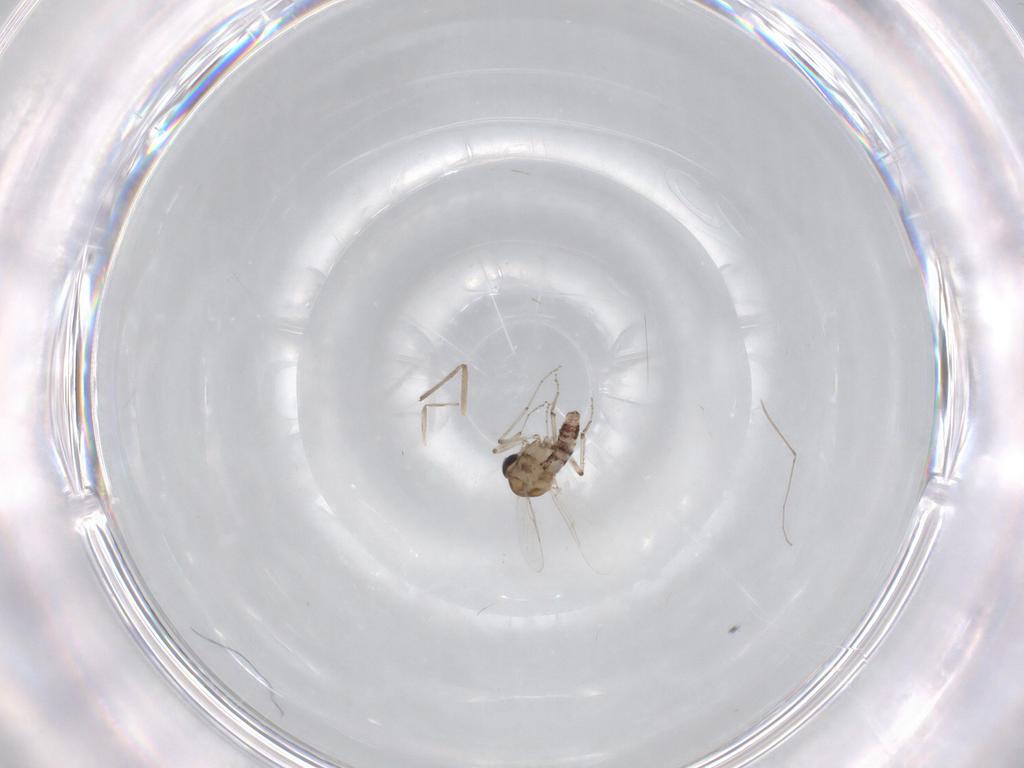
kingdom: Animalia
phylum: Arthropoda
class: Insecta
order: Diptera
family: Ceratopogonidae
